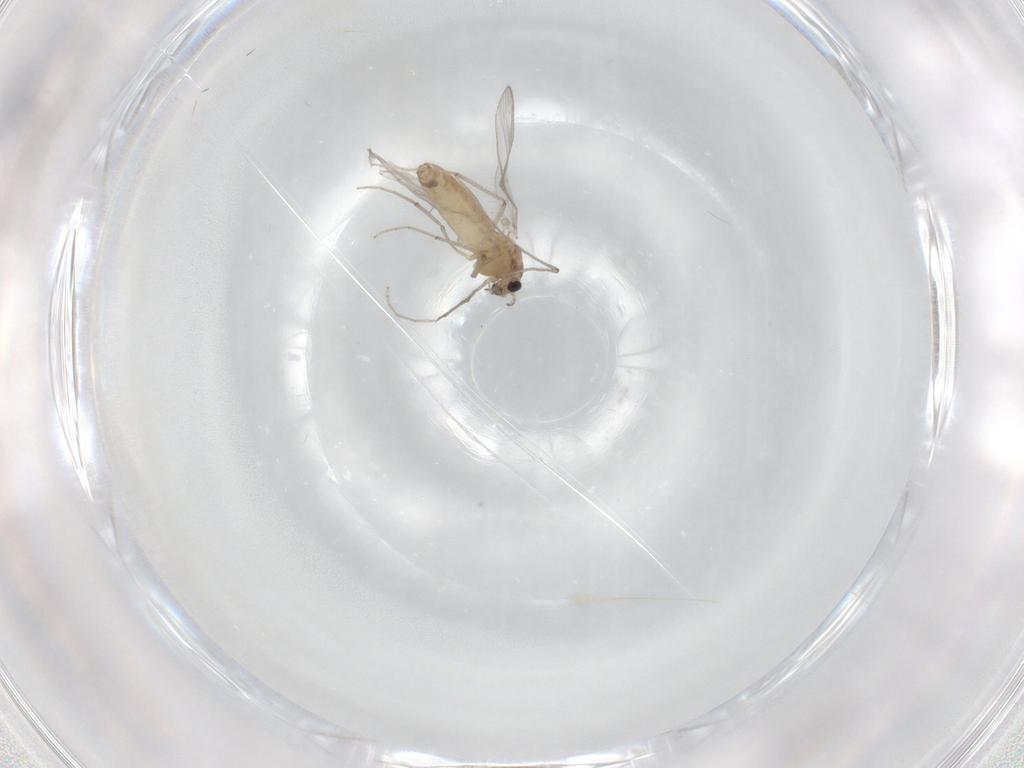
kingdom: Animalia
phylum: Arthropoda
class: Insecta
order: Diptera
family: Chironomidae
